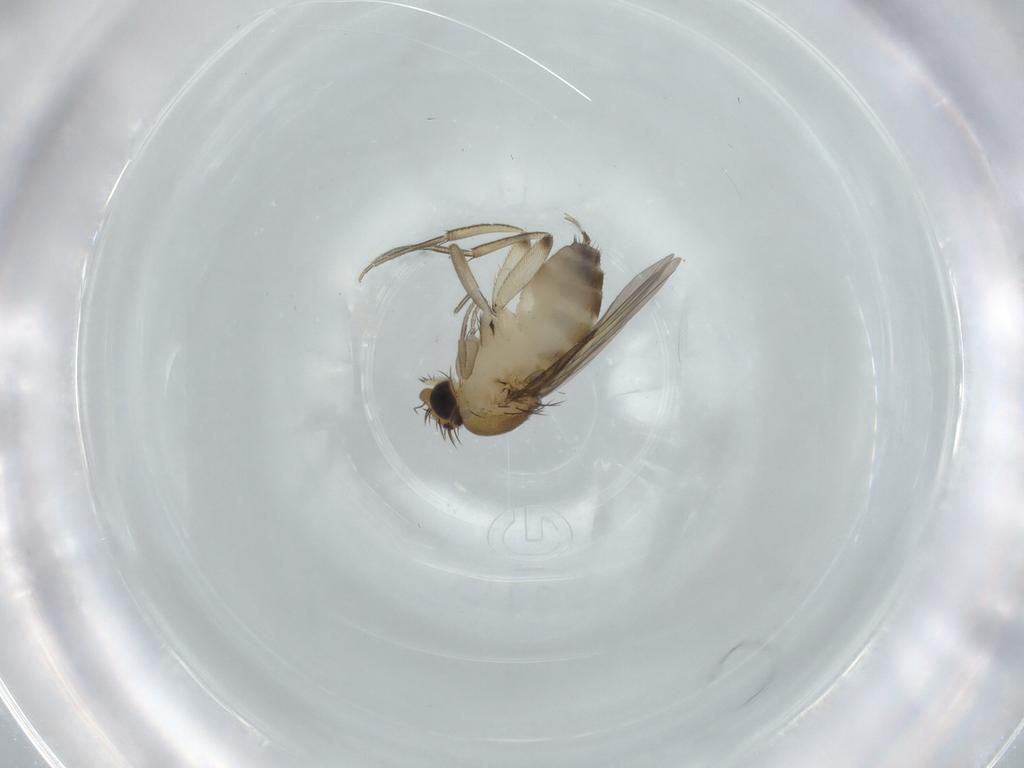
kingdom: Animalia
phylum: Arthropoda
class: Insecta
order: Diptera
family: Phoridae
